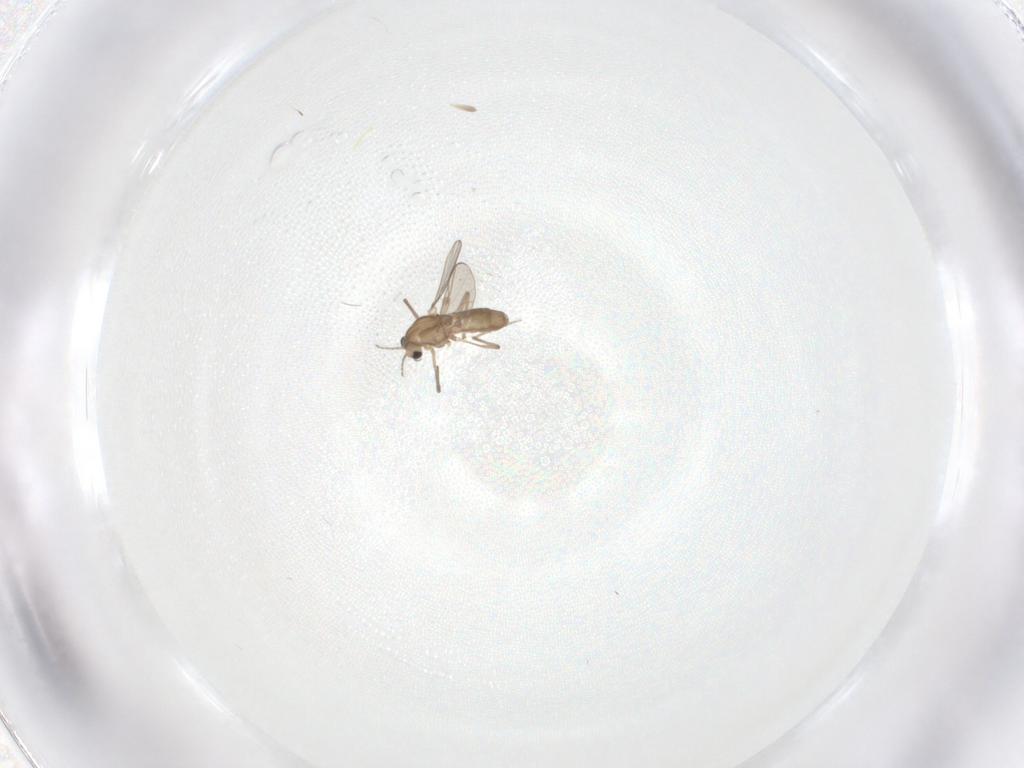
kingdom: Animalia
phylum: Arthropoda
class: Insecta
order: Diptera
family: Chironomidae
